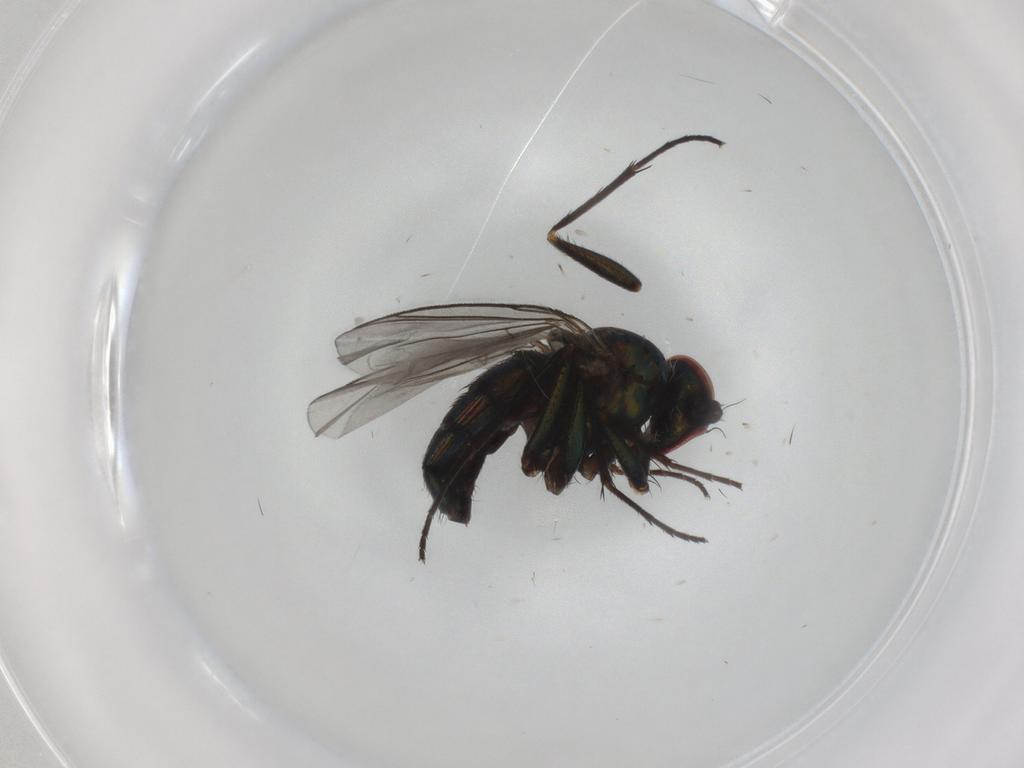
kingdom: Animalia
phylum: Arthropoda
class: Insecta
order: Diptera
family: Dolichopodidae
